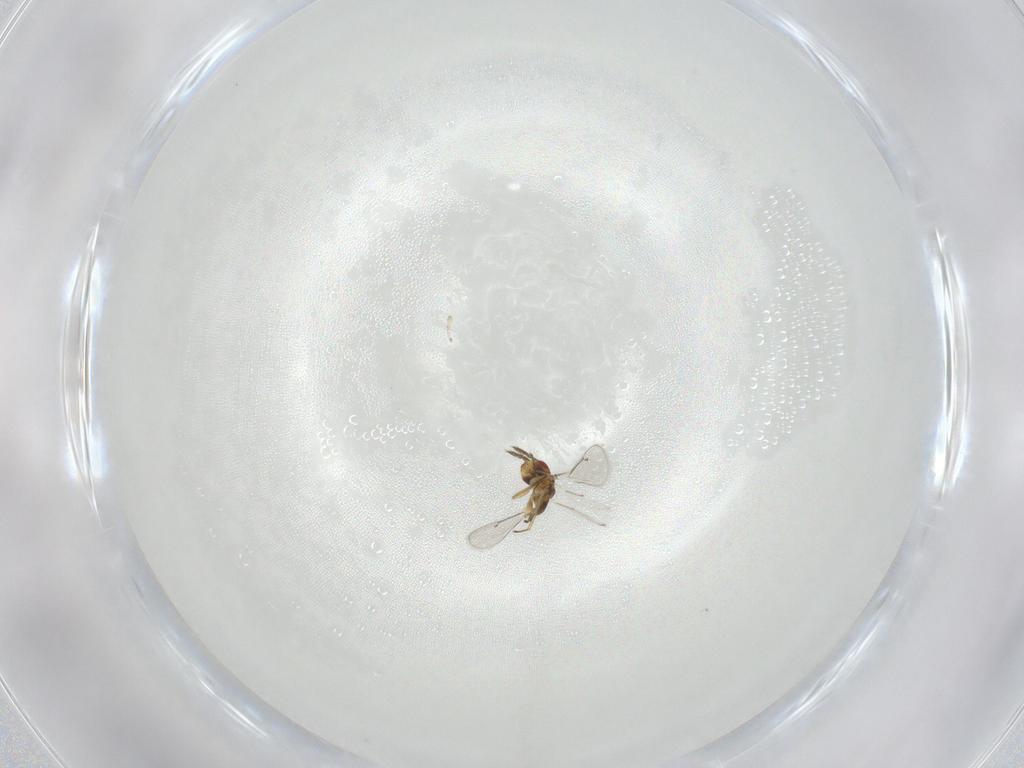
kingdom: Animalia
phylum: Arthropoda
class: Insecta
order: Hymenoptera
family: Eulophidae
